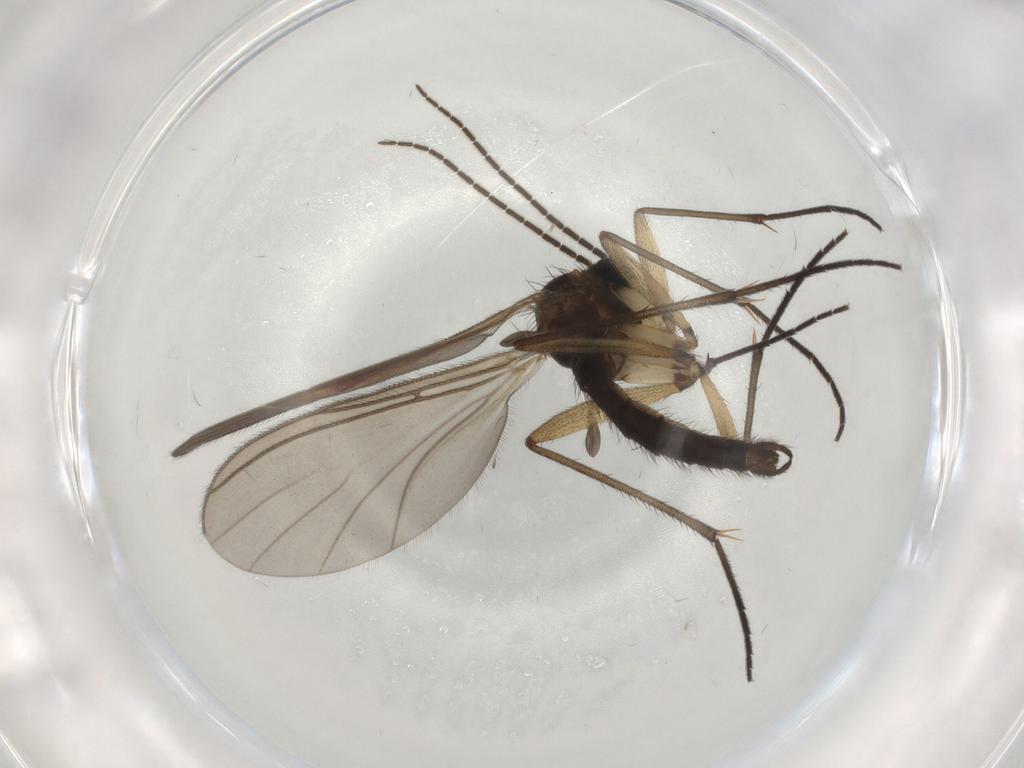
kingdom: Animalia
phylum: Arthropoda
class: Insecta
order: Diptera
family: Sciaridae
